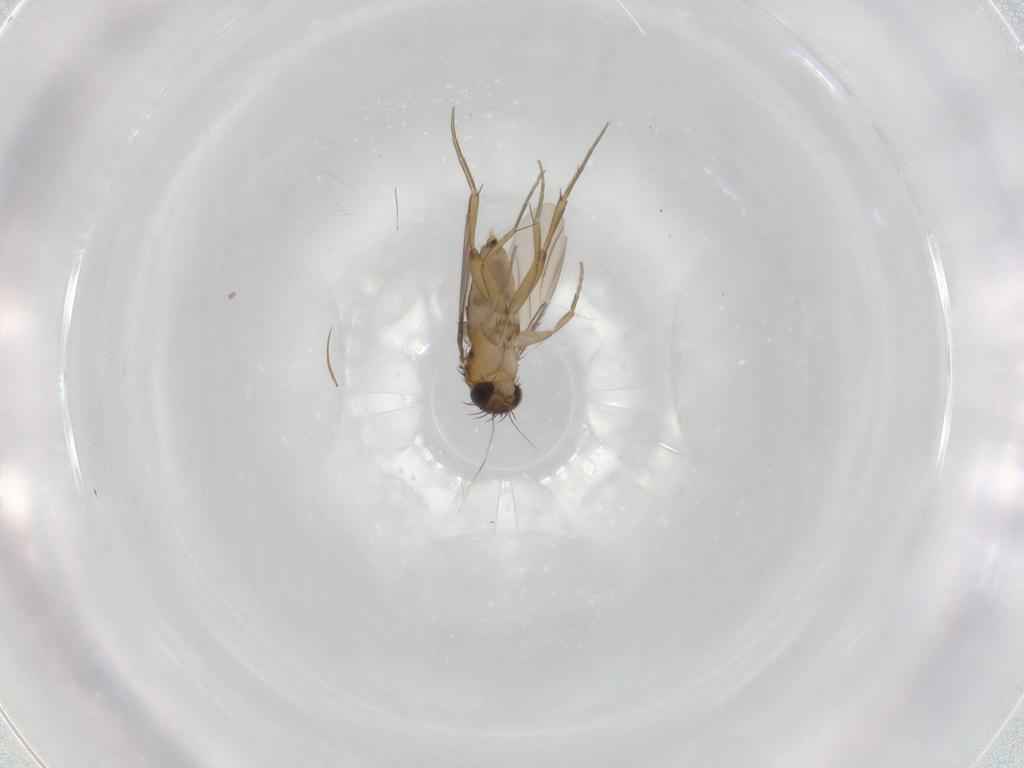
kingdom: Animalia
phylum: Arthropoda
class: Insecta
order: Diptera
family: Phoridae
